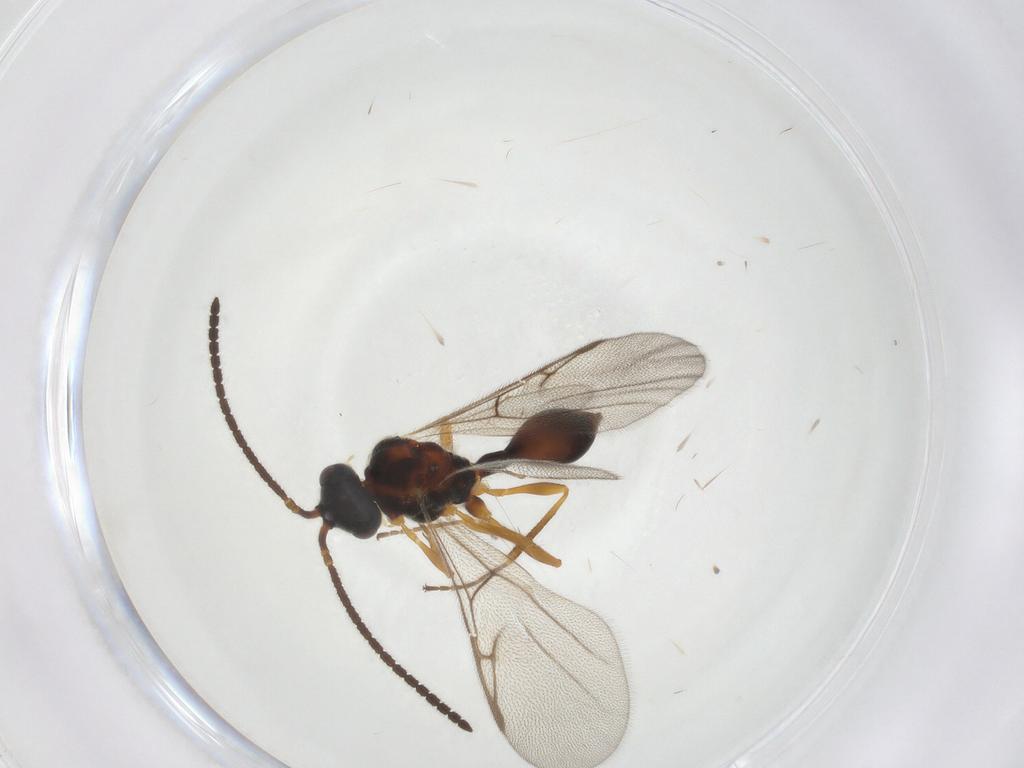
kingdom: Animalia
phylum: Arthropoda
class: Insecta
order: Hymenoptera
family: Diapriidae
